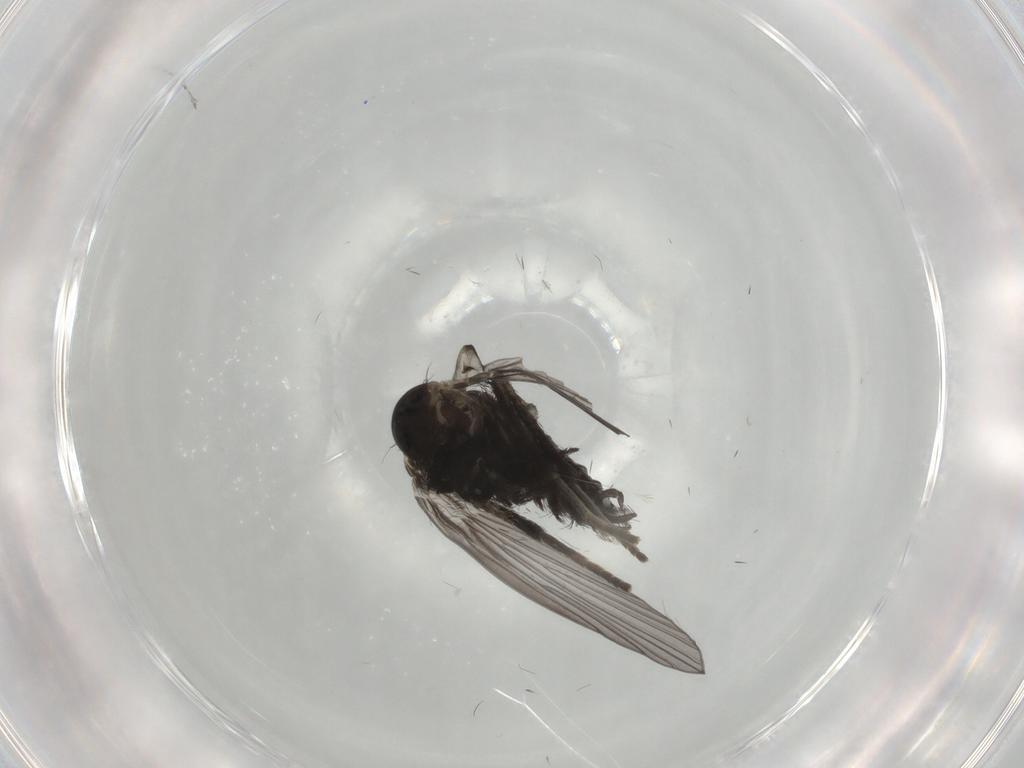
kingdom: Animalia
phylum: Arthropoda
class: Insecta
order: Diptera
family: Psychodidae
